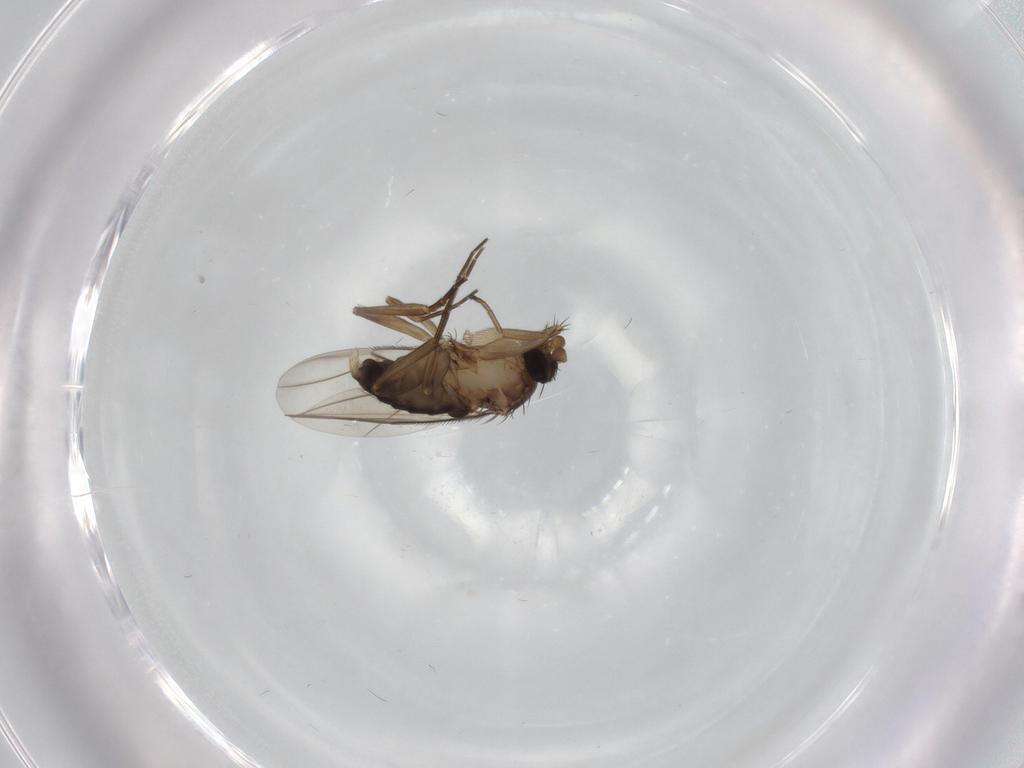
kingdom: Animalia
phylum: Arthropoda
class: Insecta
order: Diptera
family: Phoridae
